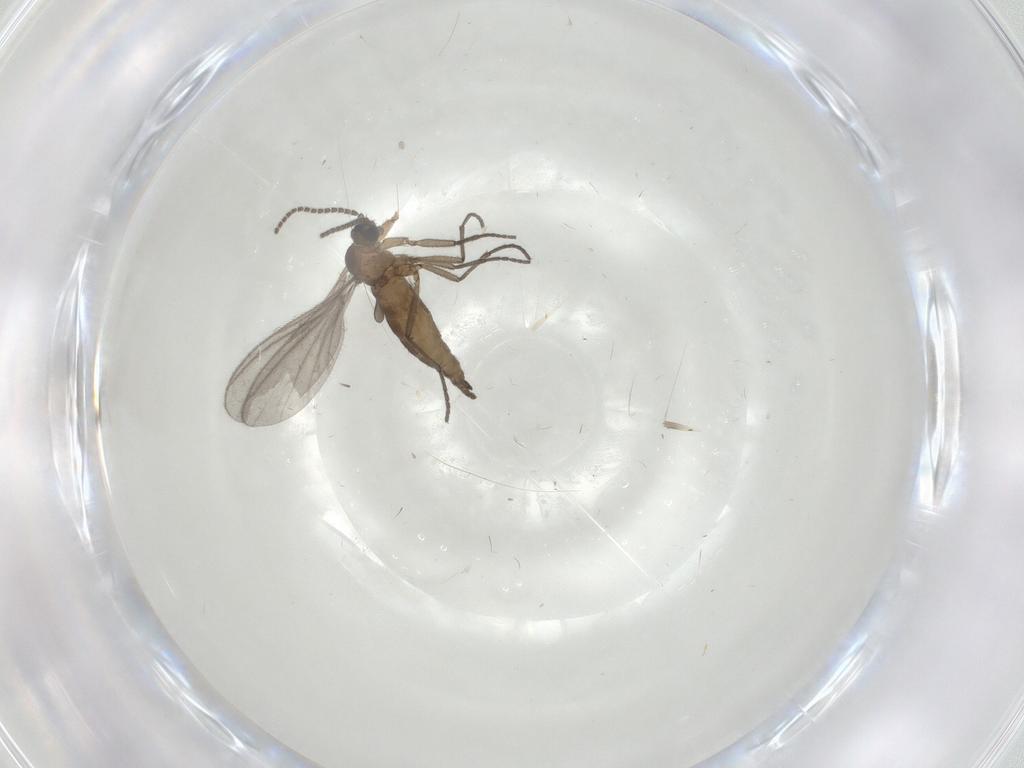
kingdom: Animalia
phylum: Arthropoda
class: Insecta
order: Diptera
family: Sciaridae
